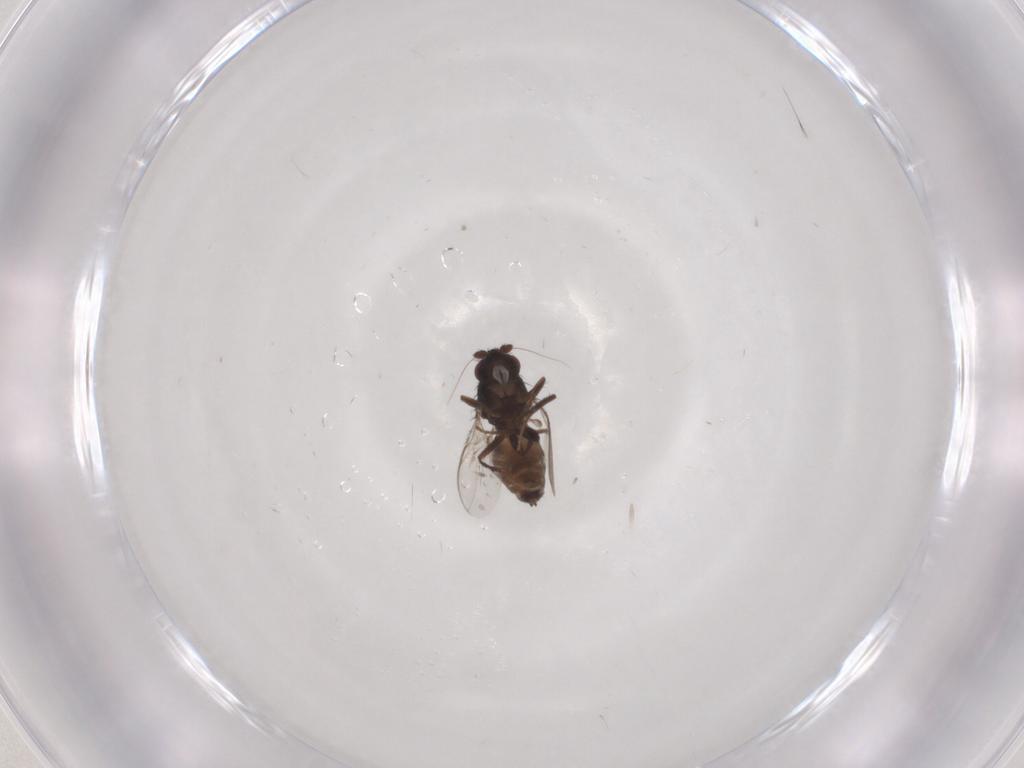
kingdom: Animalia
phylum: Arthropoda
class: Insecta
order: Diptera
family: Sphaeroceridae
